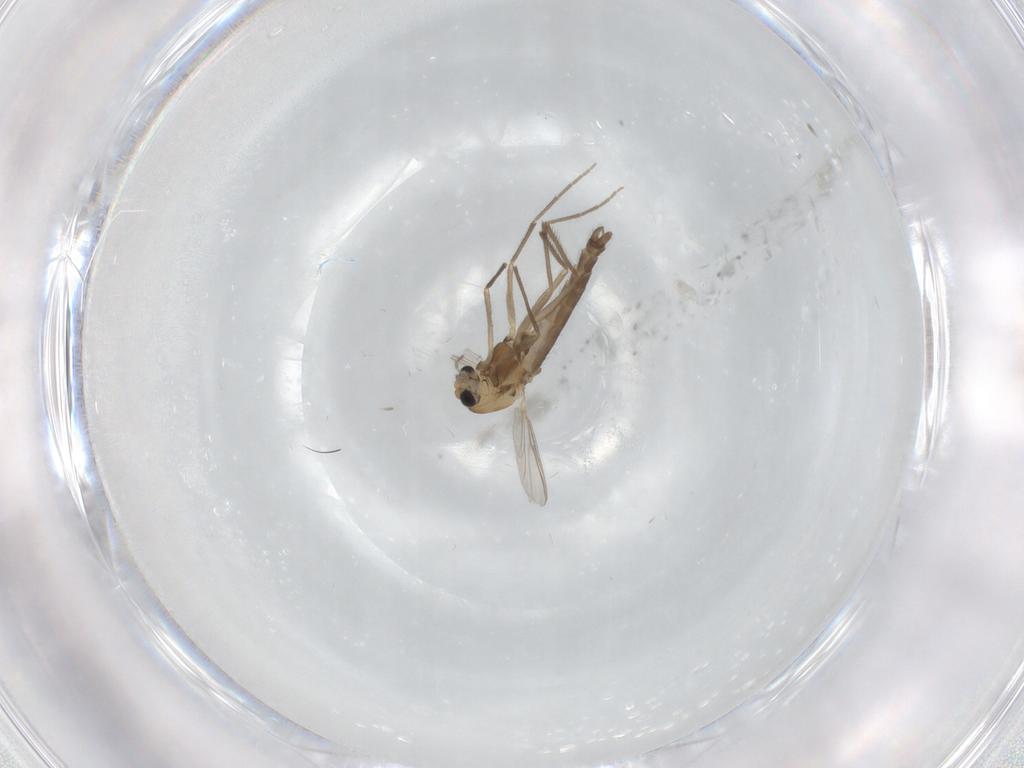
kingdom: Animalia
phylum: Arthropoda
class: Insecta
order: Diptera
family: Chironomidae
